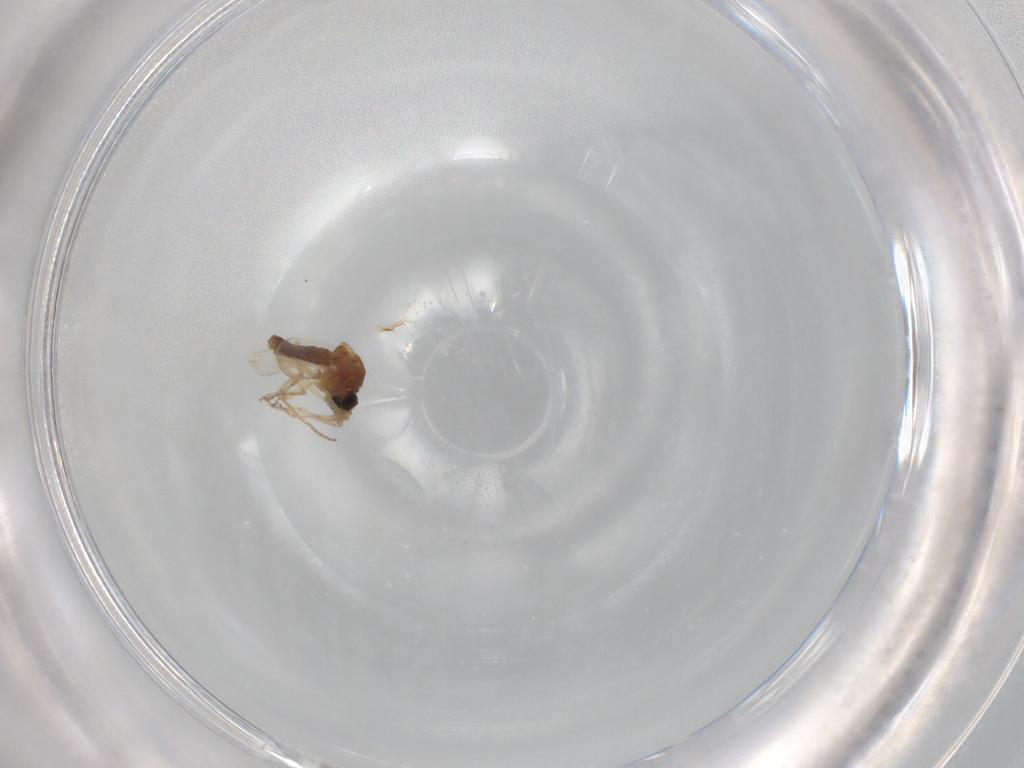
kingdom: Animalia
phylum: Arthropoda
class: Insecta
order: Diptera
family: Ceratopogonidae
